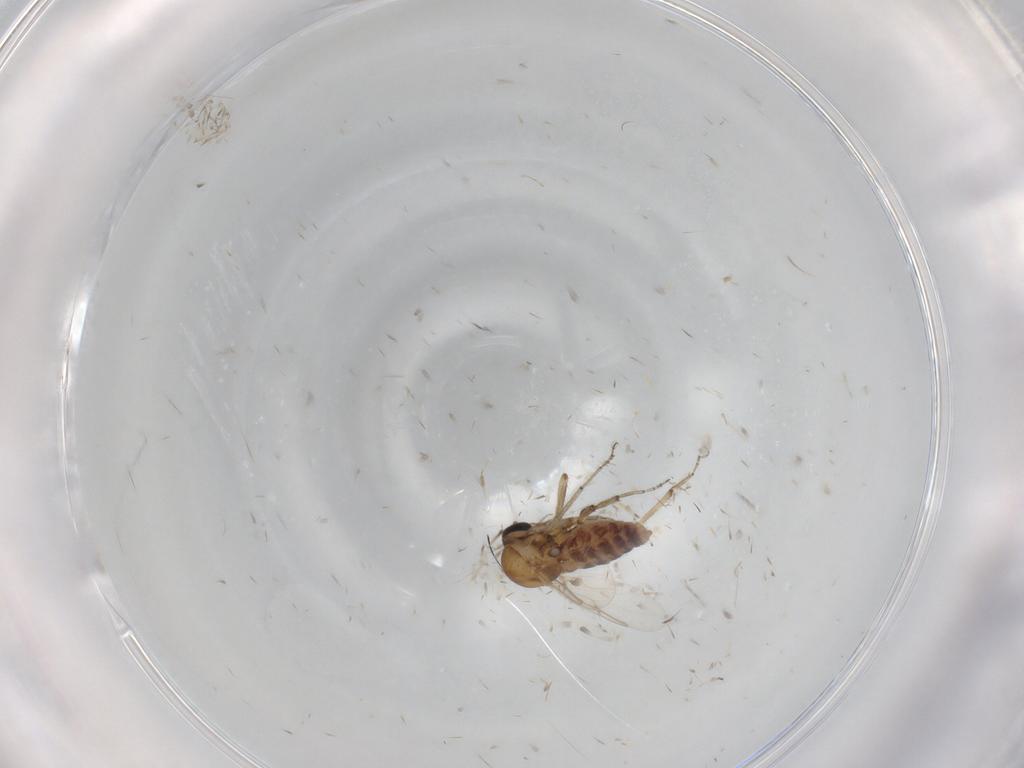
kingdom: Animalia
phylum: Arthropoda
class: Insecta
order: Diptera
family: Ceratopogonidae
